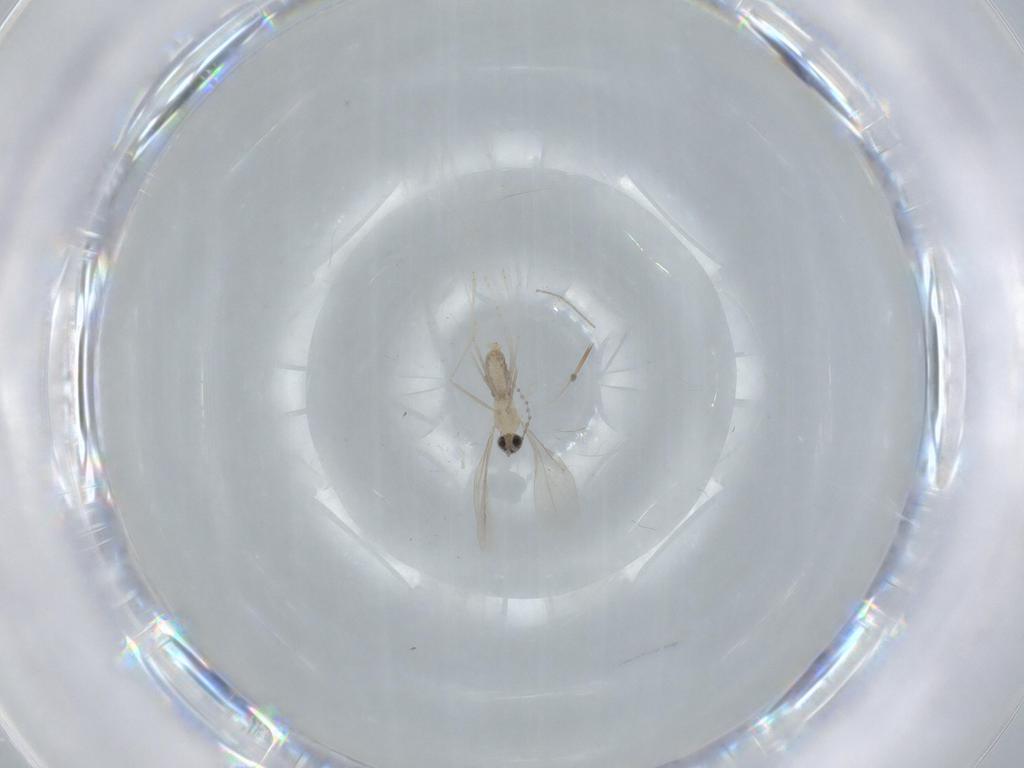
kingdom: Animalia
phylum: Arthropoda
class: Insecta
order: Diptera
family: Chironomidae
